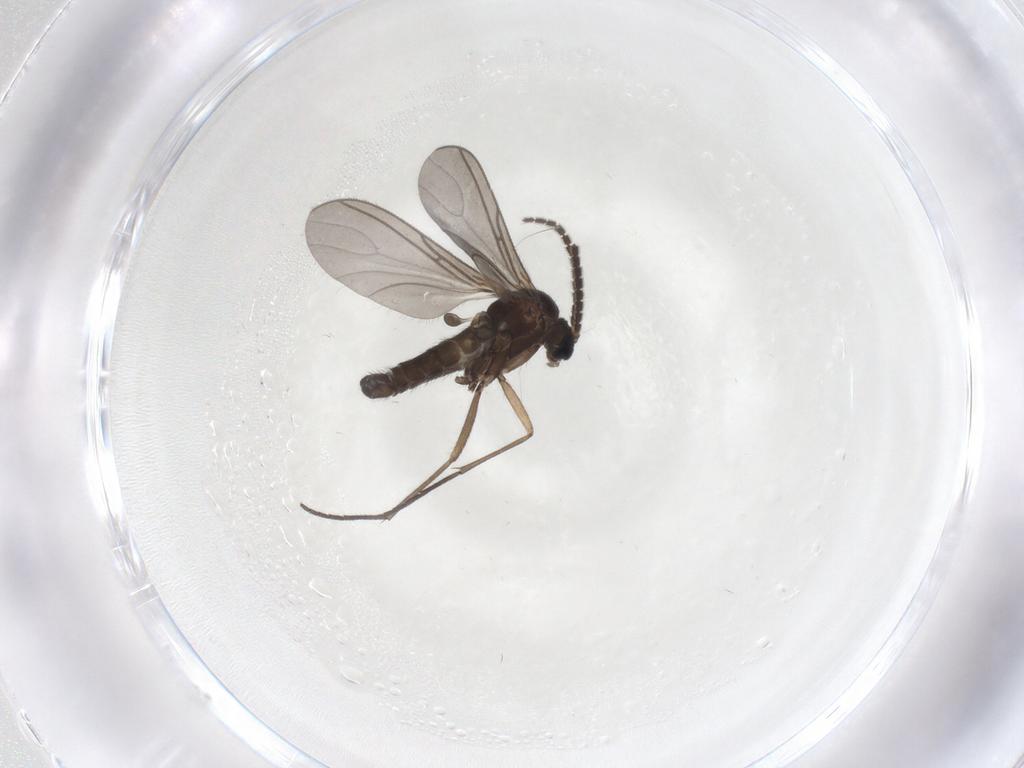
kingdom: Animalia
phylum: Arthropoda
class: Insecta
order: Diptera
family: Sciaridae
